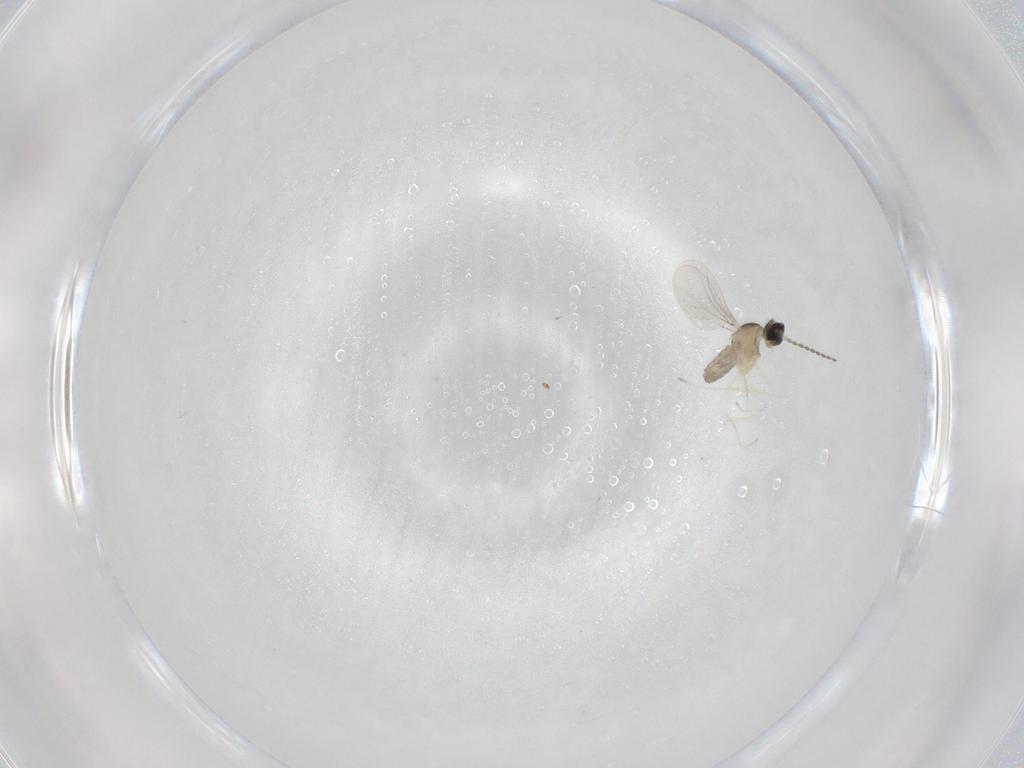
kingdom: Animalia
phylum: Arthropoda
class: Insecta
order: Diptera
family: Cecidomyiidae
